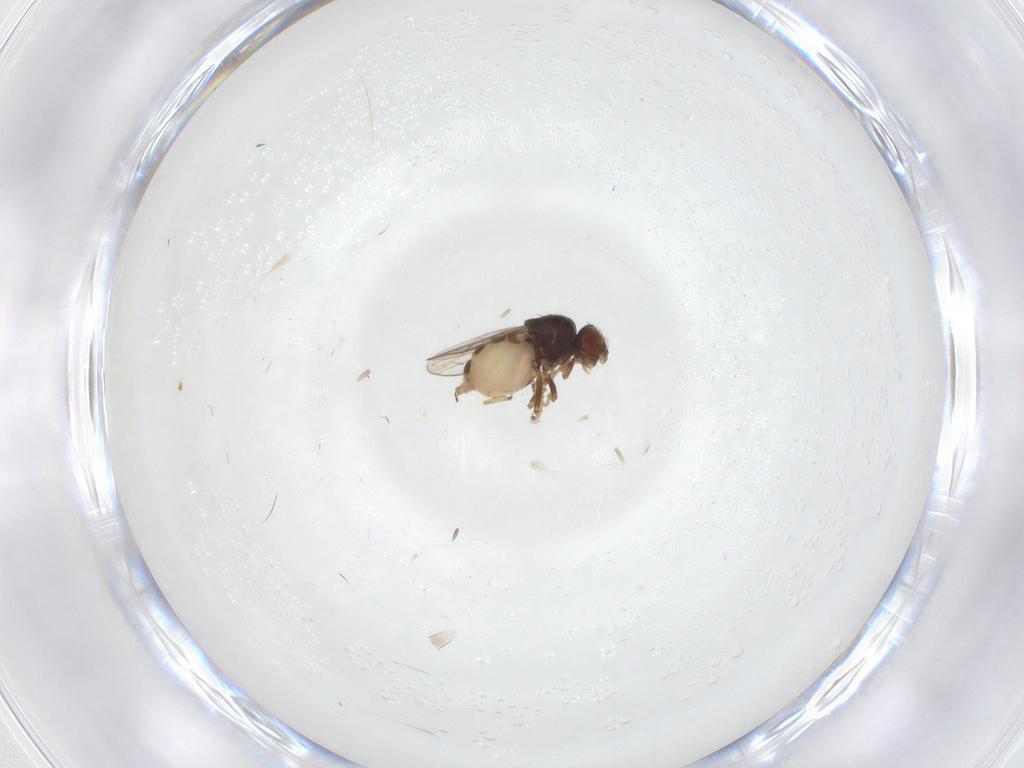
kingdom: Animalia
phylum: Arthropoda
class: Insecta
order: Diptera
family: Chloropidae
